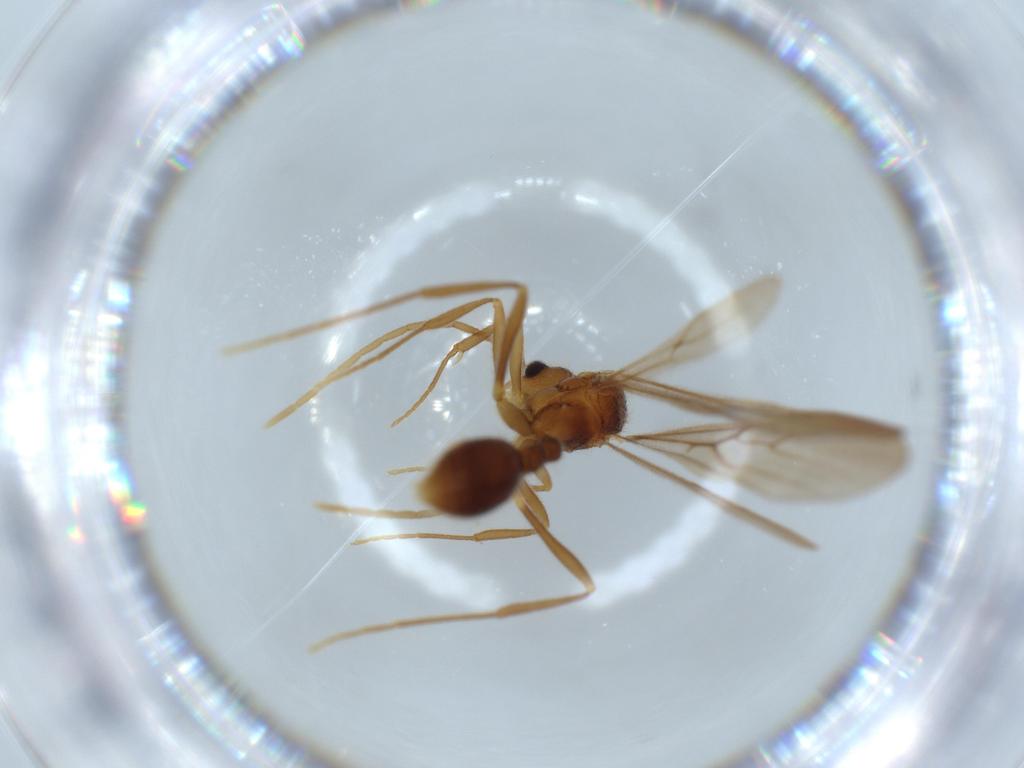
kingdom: Animalia
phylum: Arthropoda
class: Insecta
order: Hymenoptera
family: Formicidae
